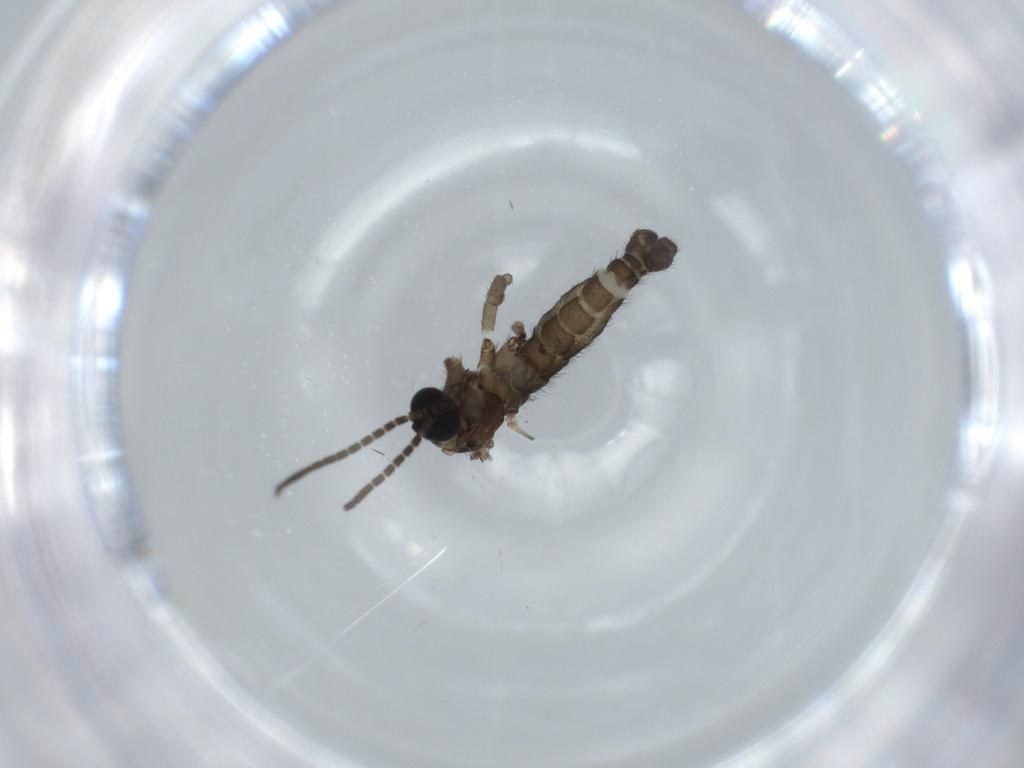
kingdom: Animalia
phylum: Arthropoda
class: Insecta
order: Diptera
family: Sciaridae
